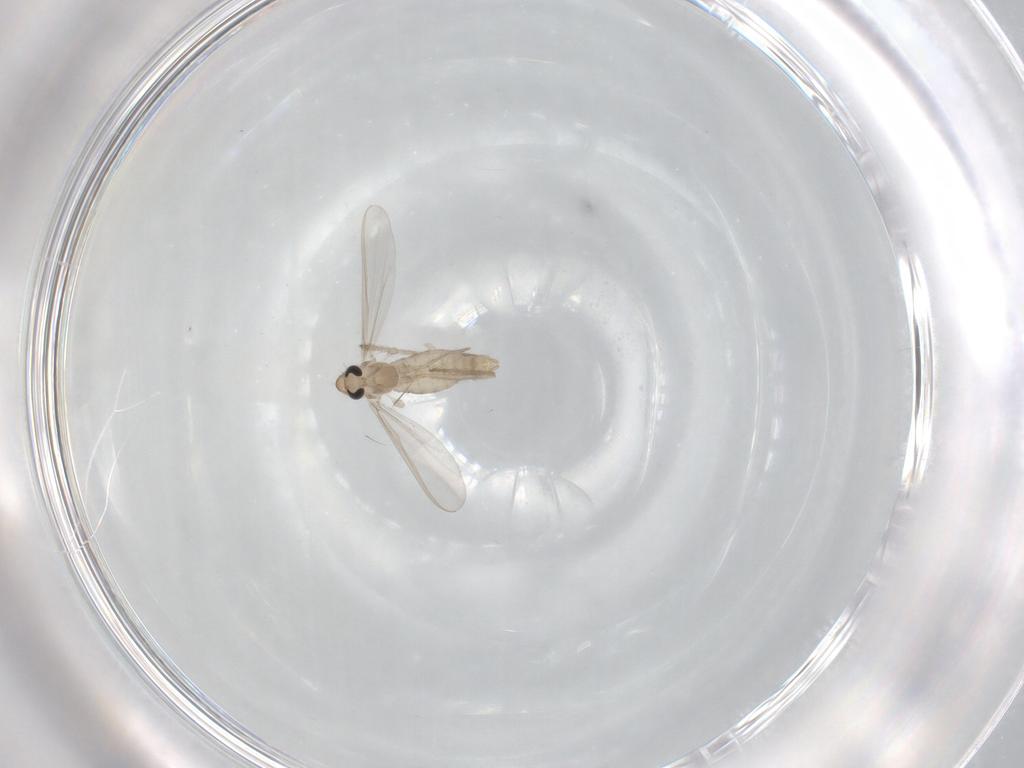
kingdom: Animalia
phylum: Arthropoda
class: Insecta
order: Diptera
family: Chironomidae
